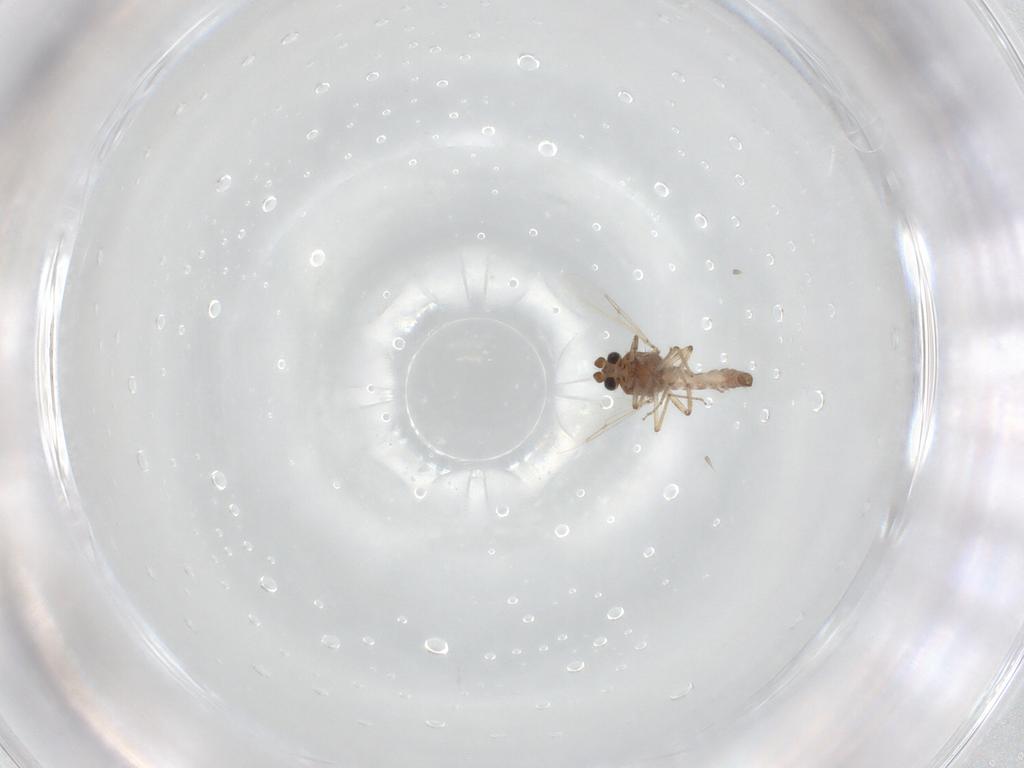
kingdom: Animalia
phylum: Arthropoda
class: Insecta
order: Diptera
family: Ceratopogonidae
